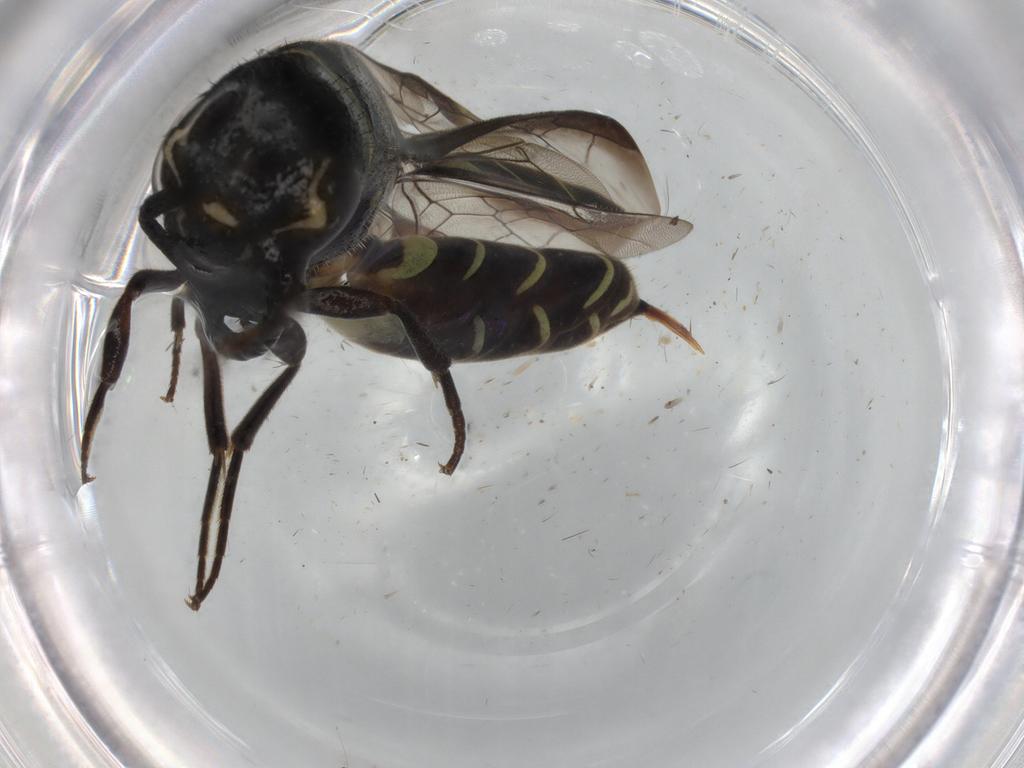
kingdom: Animalia
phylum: Arthropoda
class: Insecta
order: Hymenoptera
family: Sapygidae
